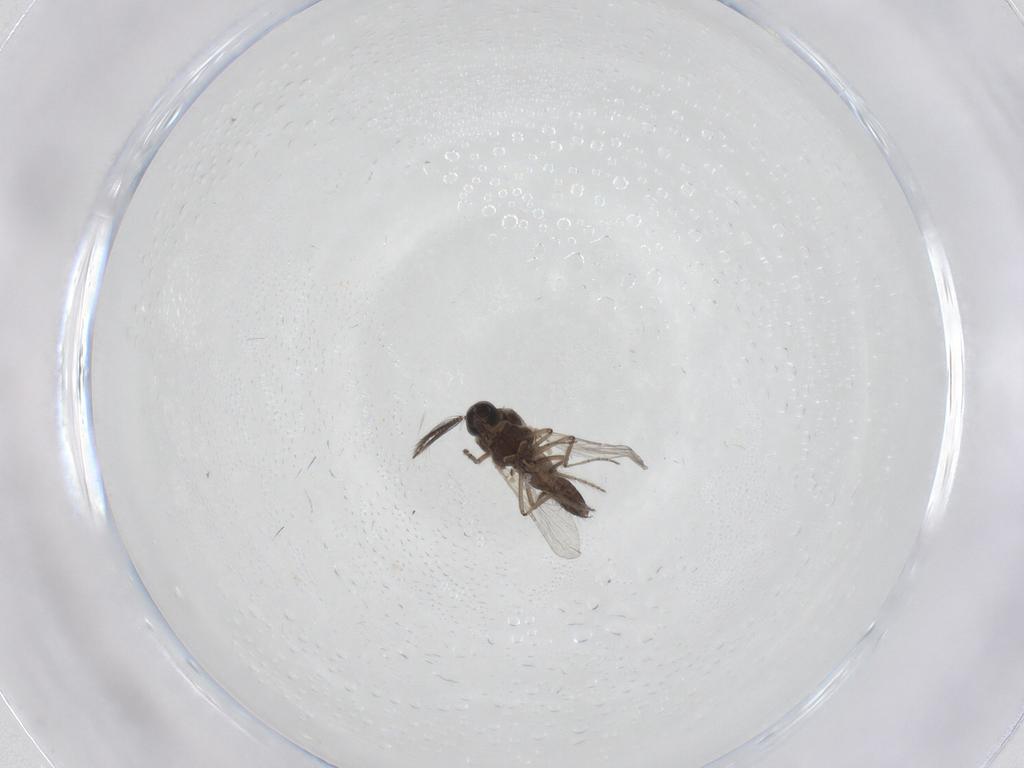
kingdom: Animalia
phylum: Arthropoda
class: Insecta
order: Diptera
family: Ceratopogonidae
